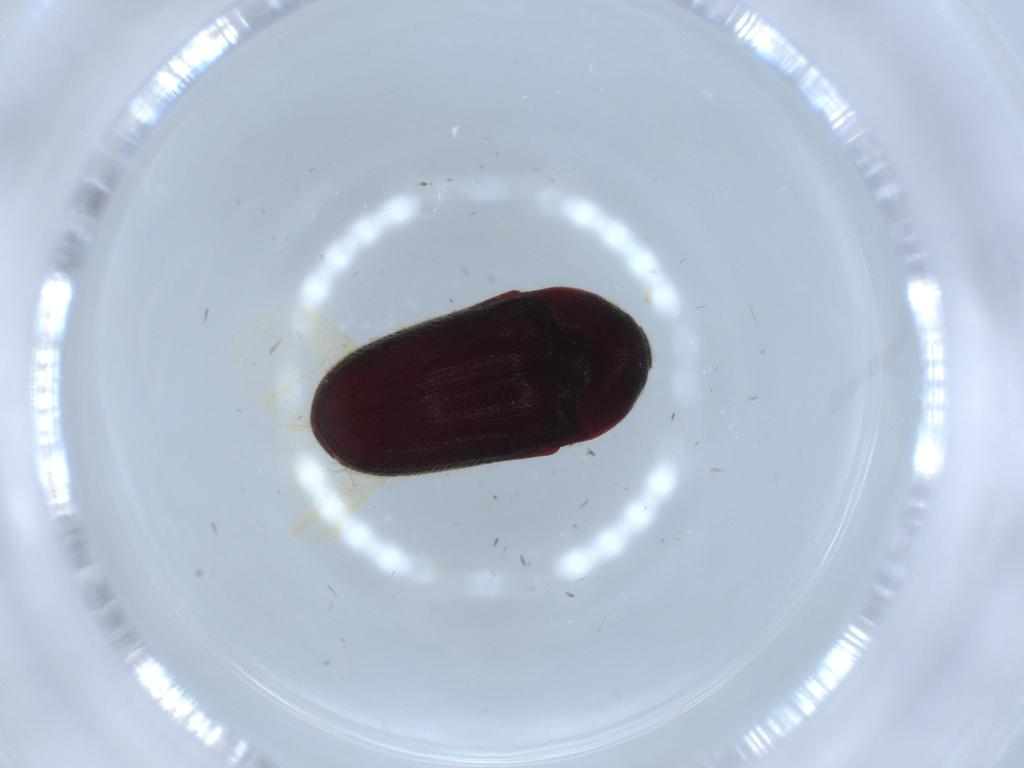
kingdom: Animalia
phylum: Arthropoda
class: Insecta
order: Coleoptera
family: Throscidae
